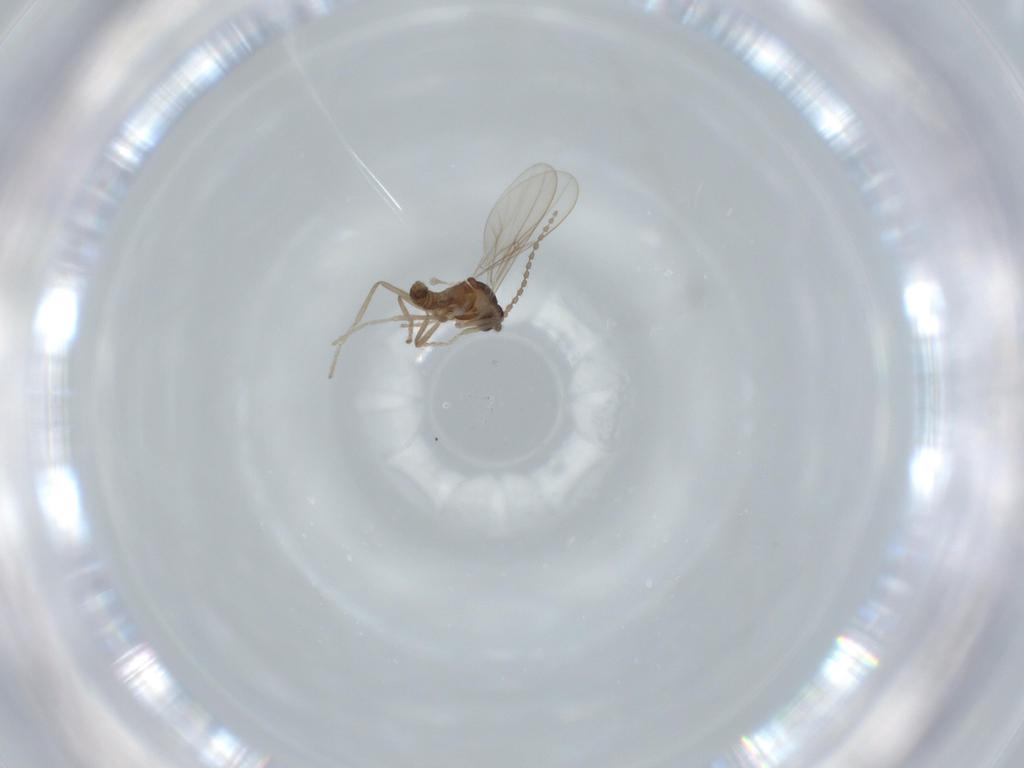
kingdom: Animalia
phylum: Arthropoda
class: Insecta
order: Diptera
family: Cecidomyiidae
